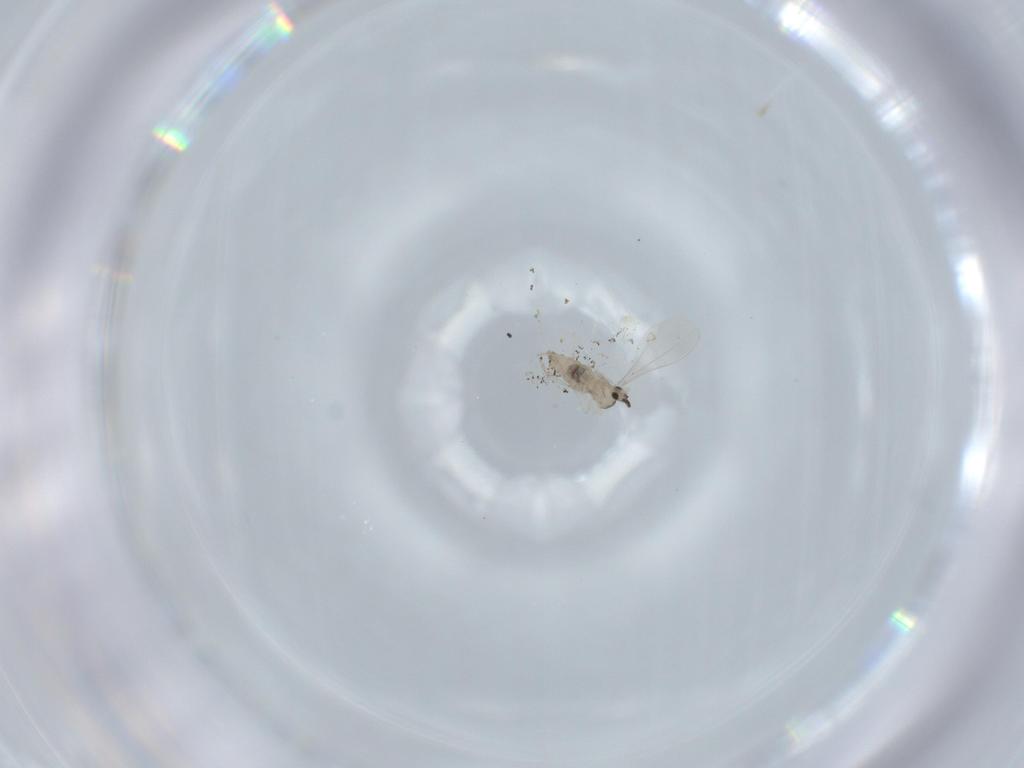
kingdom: Animalia
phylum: Arthropoda
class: Insecta
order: Diptera
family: Cecidomyiidae
